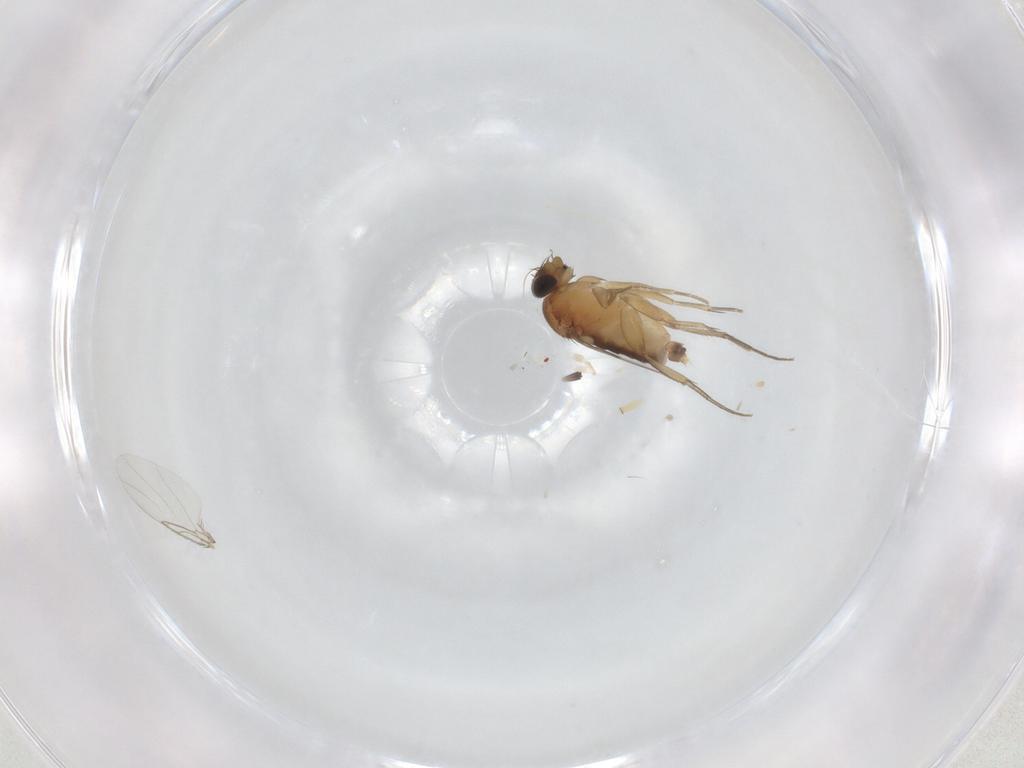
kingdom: Animalia
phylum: Arthropoda
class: Insecta
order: Diptera
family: Phoridae
